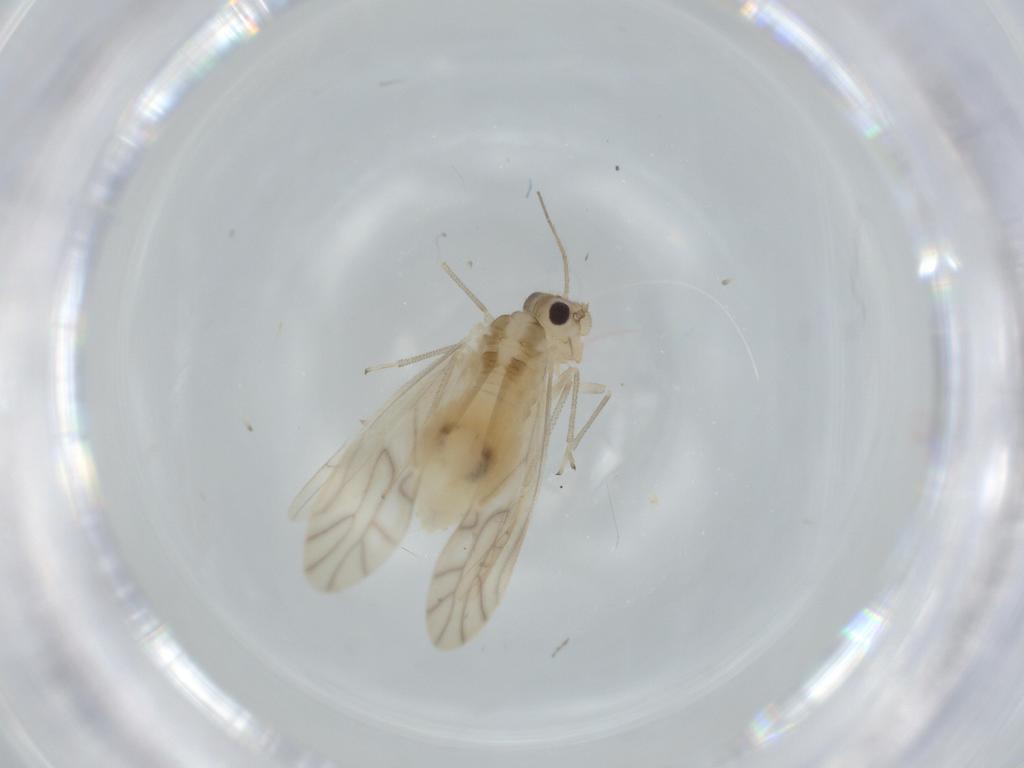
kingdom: Animalia
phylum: Arthropoda
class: Insecta
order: Psocodea
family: Caeciliusidae
